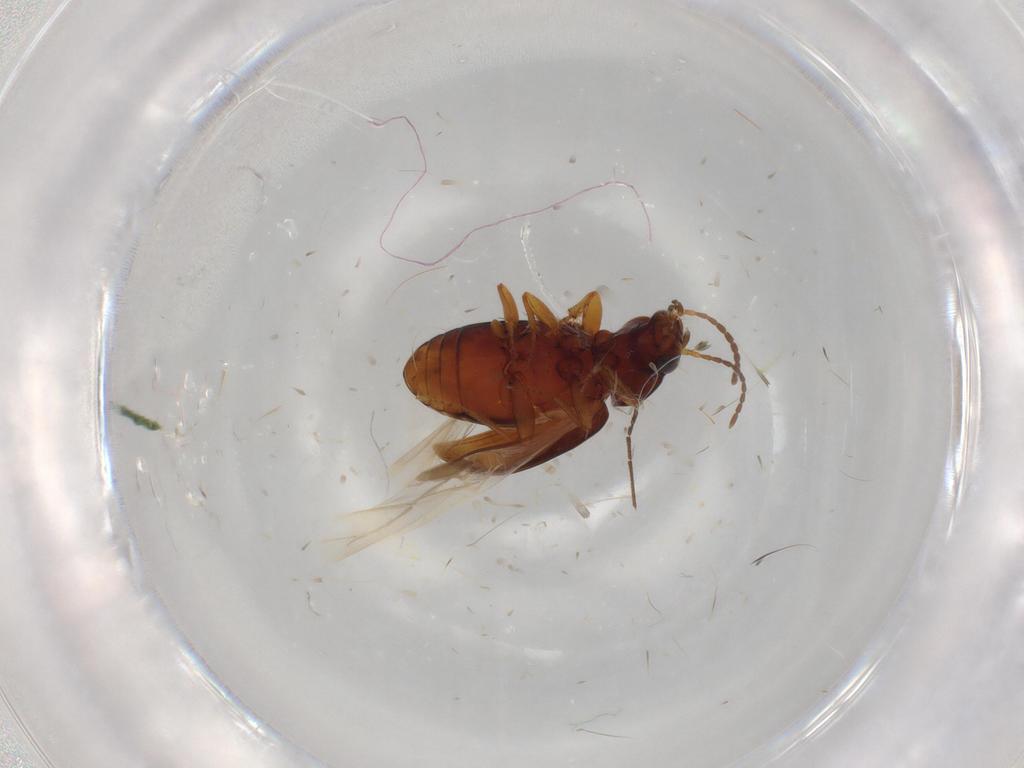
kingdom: Animalia
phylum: Arthropoda
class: Insecta
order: Coleoptera
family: Carabidae
